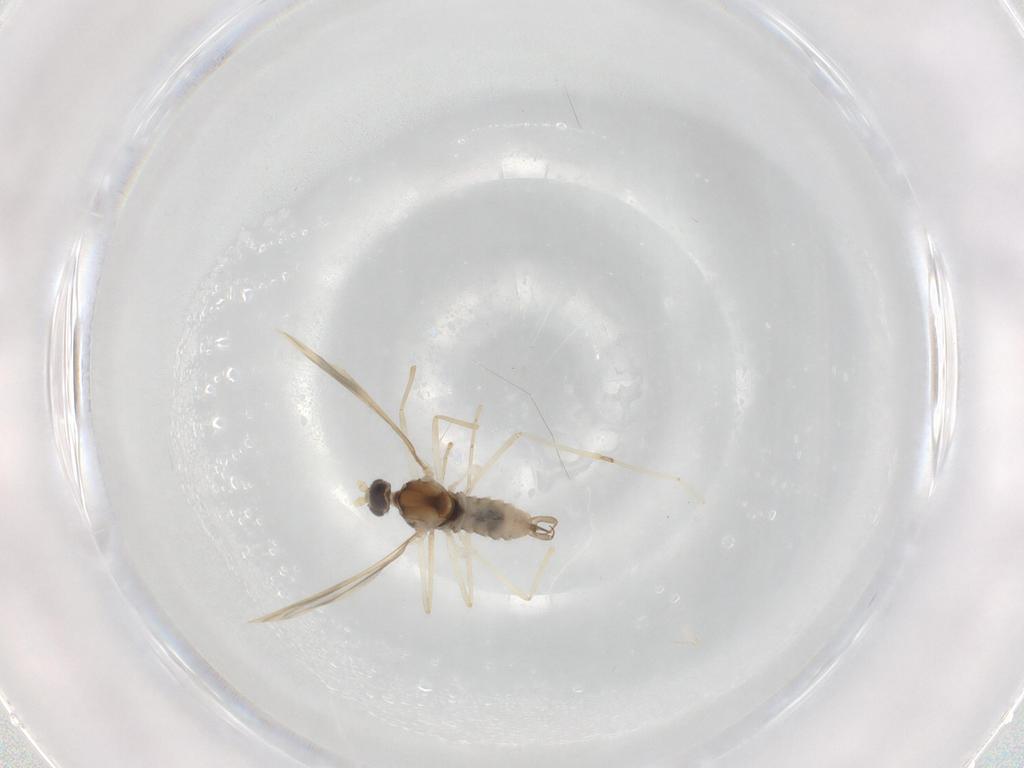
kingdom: Animalia
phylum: Arthropoda
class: Insecta
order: Diptera
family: Cecidomyiidae
